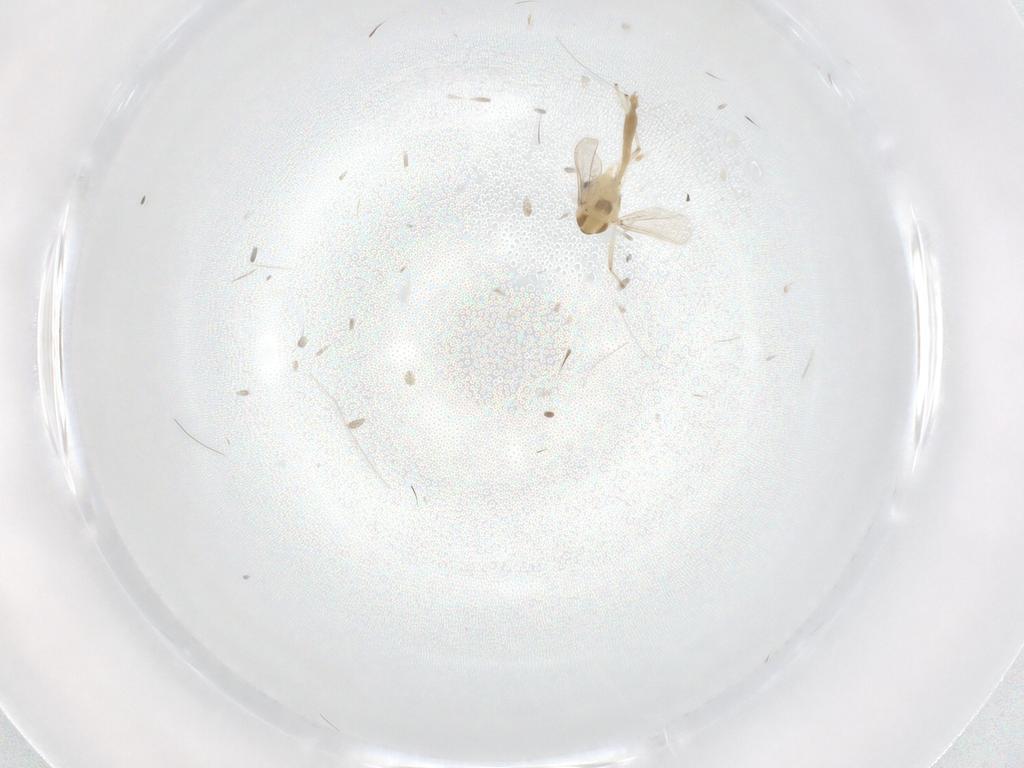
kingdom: Animalia
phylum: Arthropoda
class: Insecta
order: Diptera
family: Chironomidae
